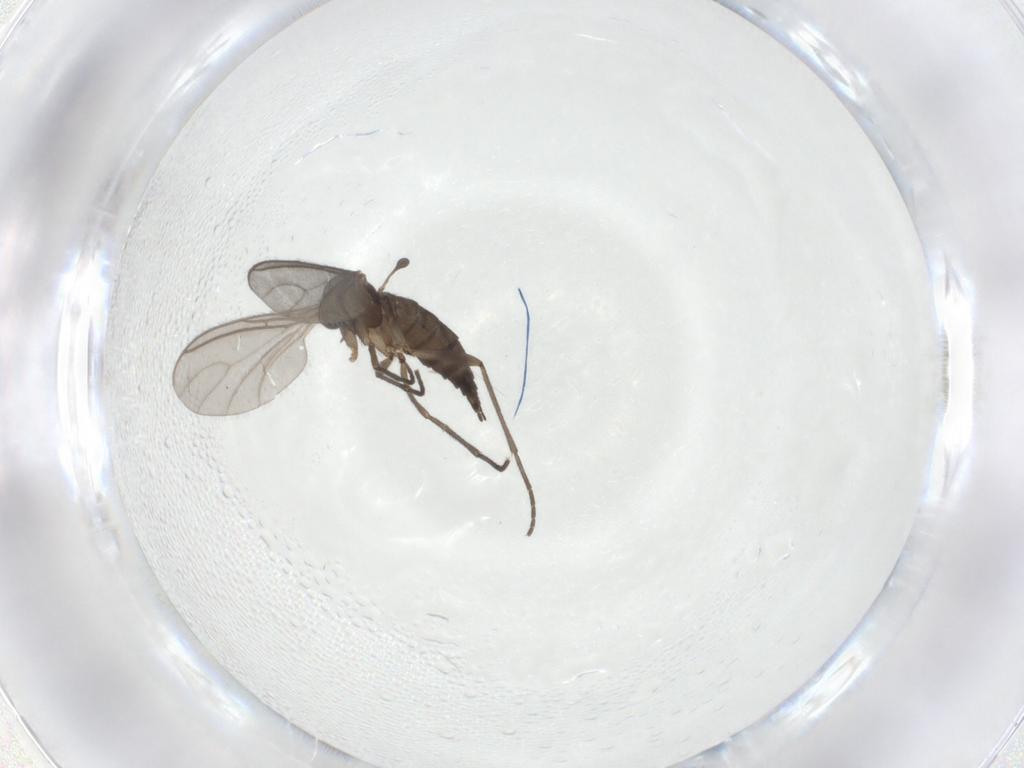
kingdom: Animalia
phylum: Arthropoda
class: Insecta
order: Diptera
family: Sciaridae
